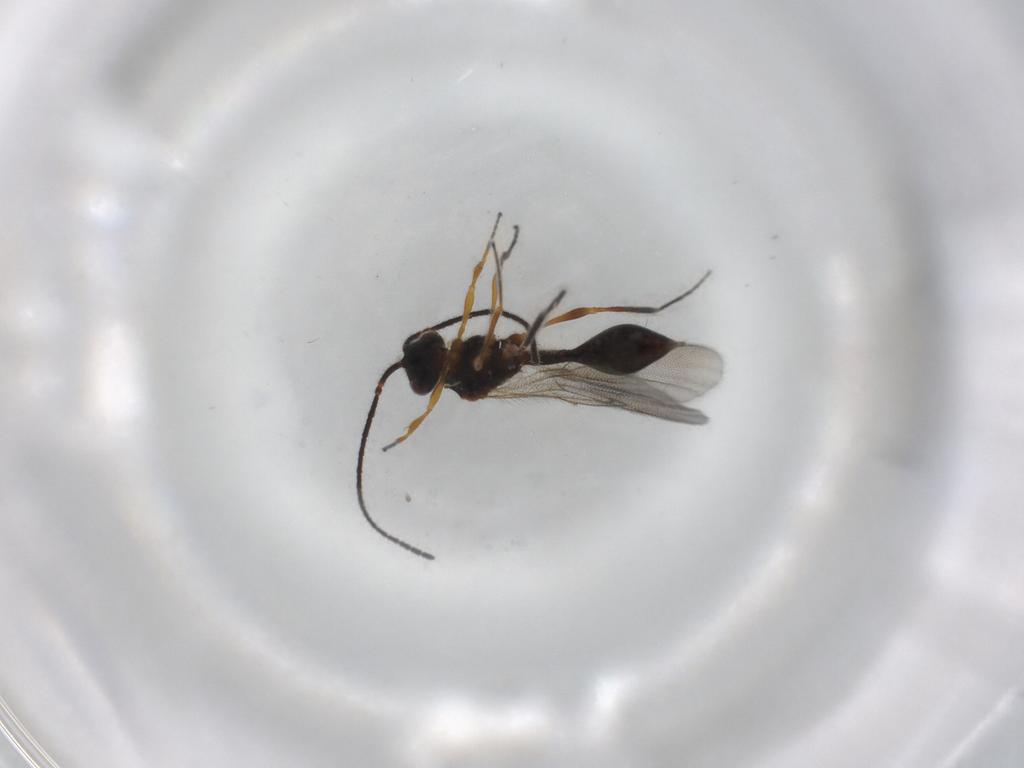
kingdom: Animalia
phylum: Arthropoda
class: Insecta
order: Hymenoptera
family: Diapriidae
